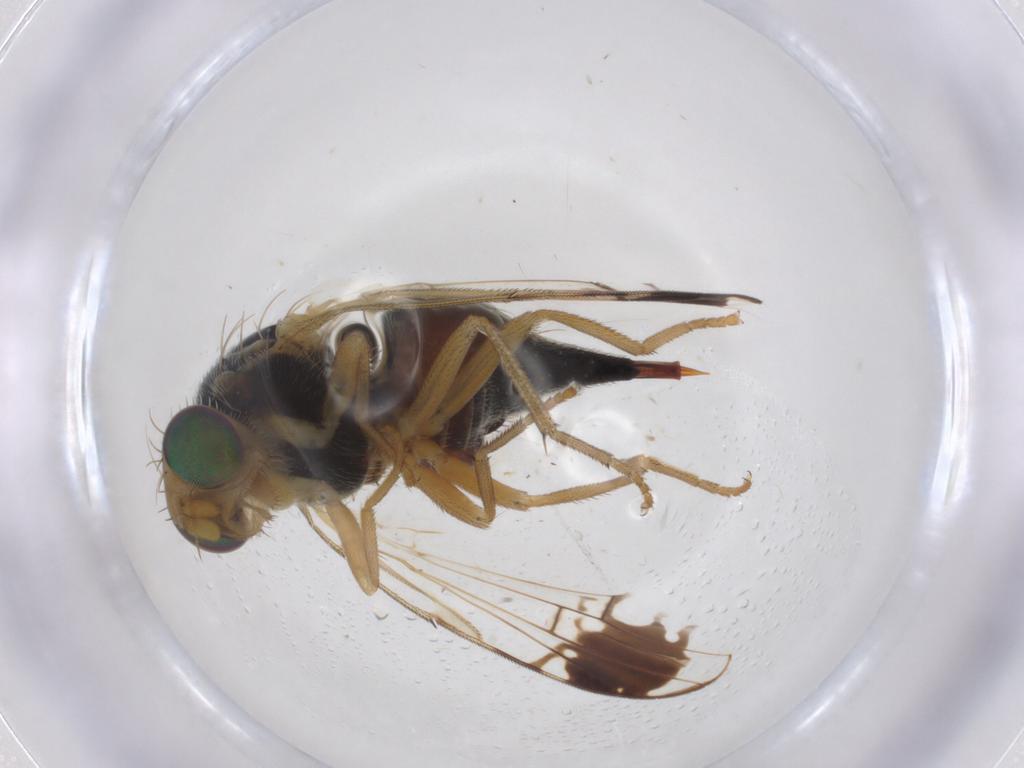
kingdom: Animalia
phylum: Arthropoda
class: Insecta
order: Diptera
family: Tephritidae
